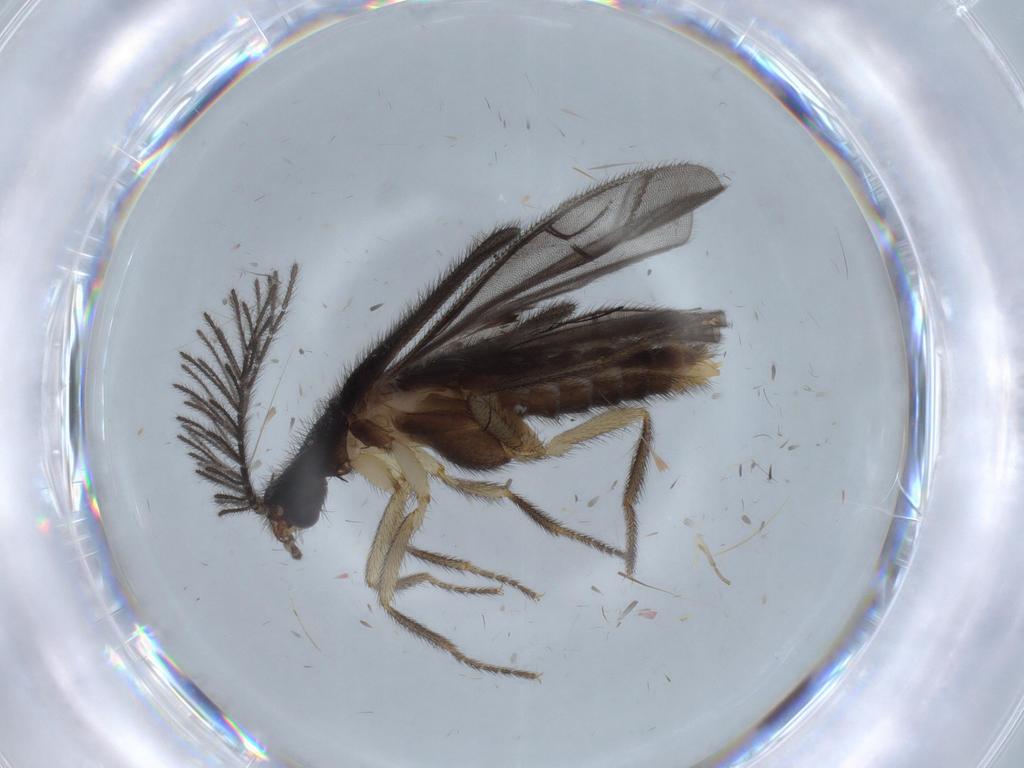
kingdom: Animalia
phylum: Arthropoda
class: Insecta
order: Coleoptera
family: Phengodidae
